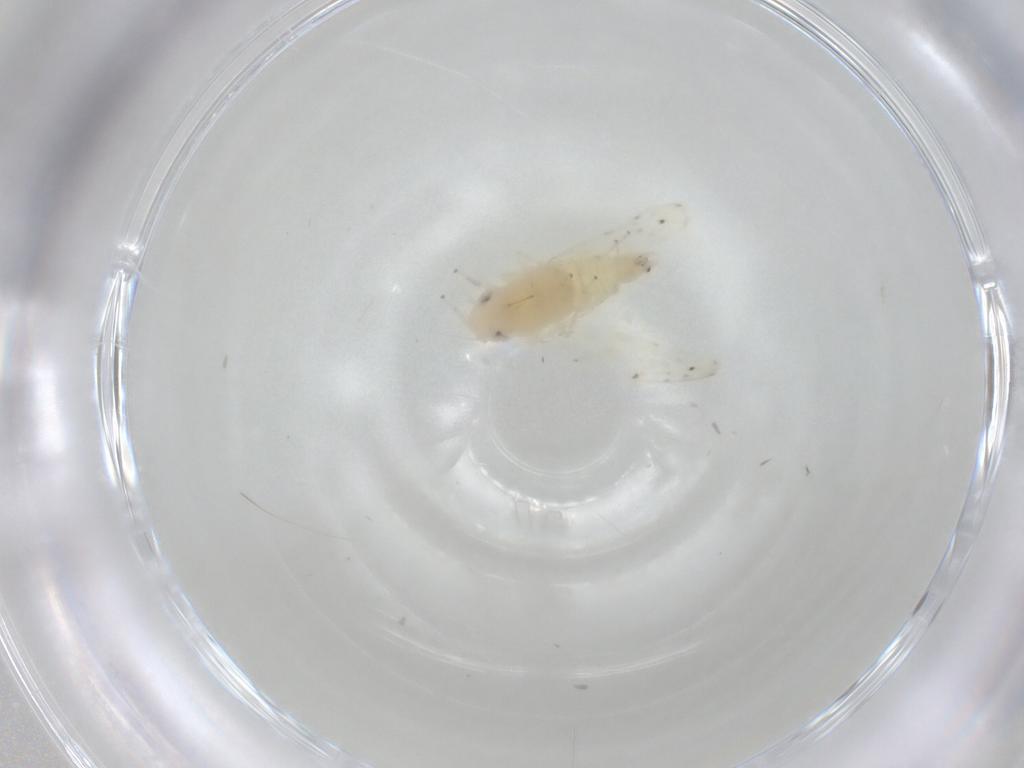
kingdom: Animalia
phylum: Arthropoda
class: Insecta
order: Hemiptera
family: Cicadellidae
